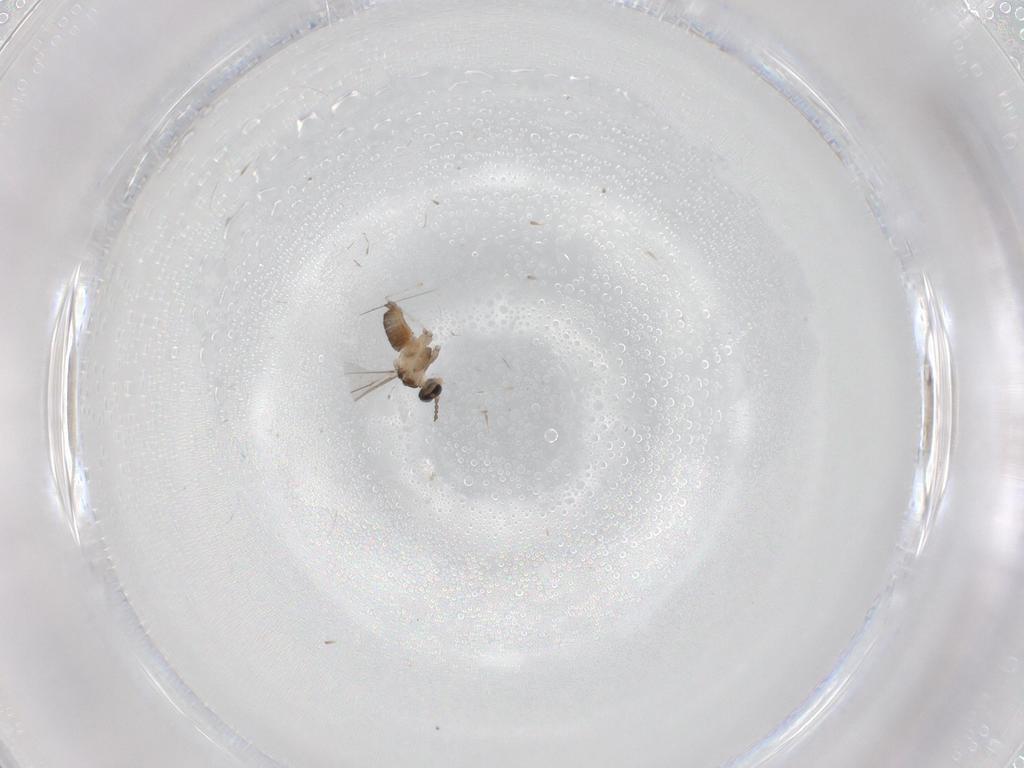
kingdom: Animalia
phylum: Arthropoda
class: Insecta
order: Diptera
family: Cecidomyiidae
